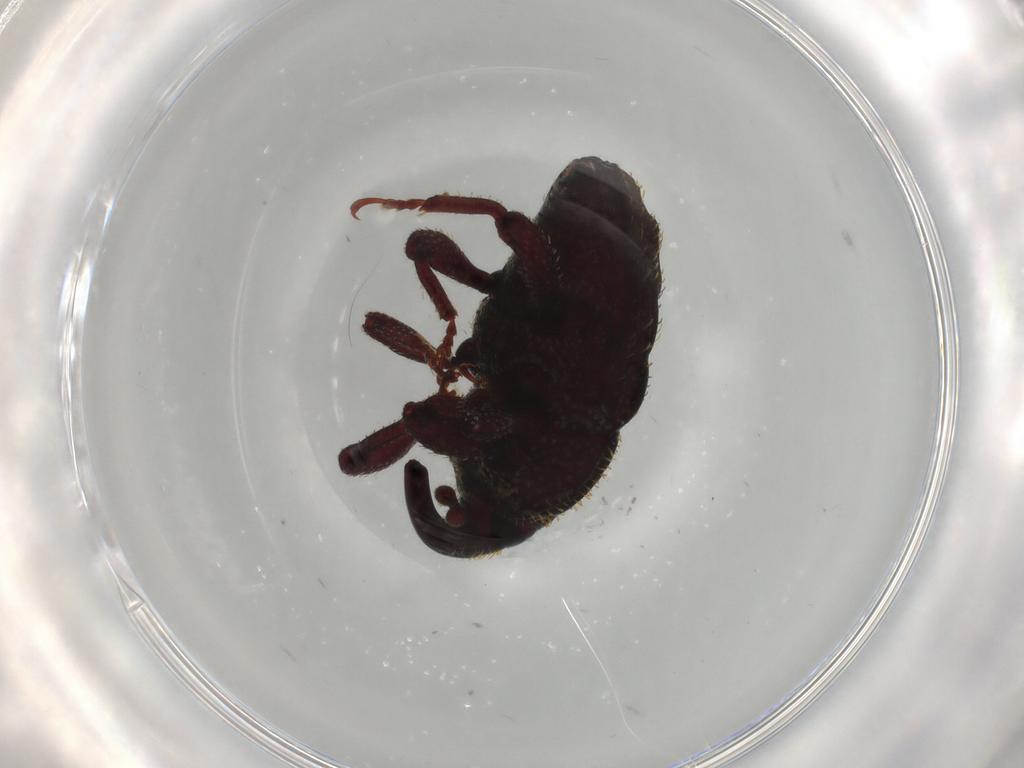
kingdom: Animalia
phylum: Arthropoda
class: Insecta
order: Coleoptera
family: Curculionidae
